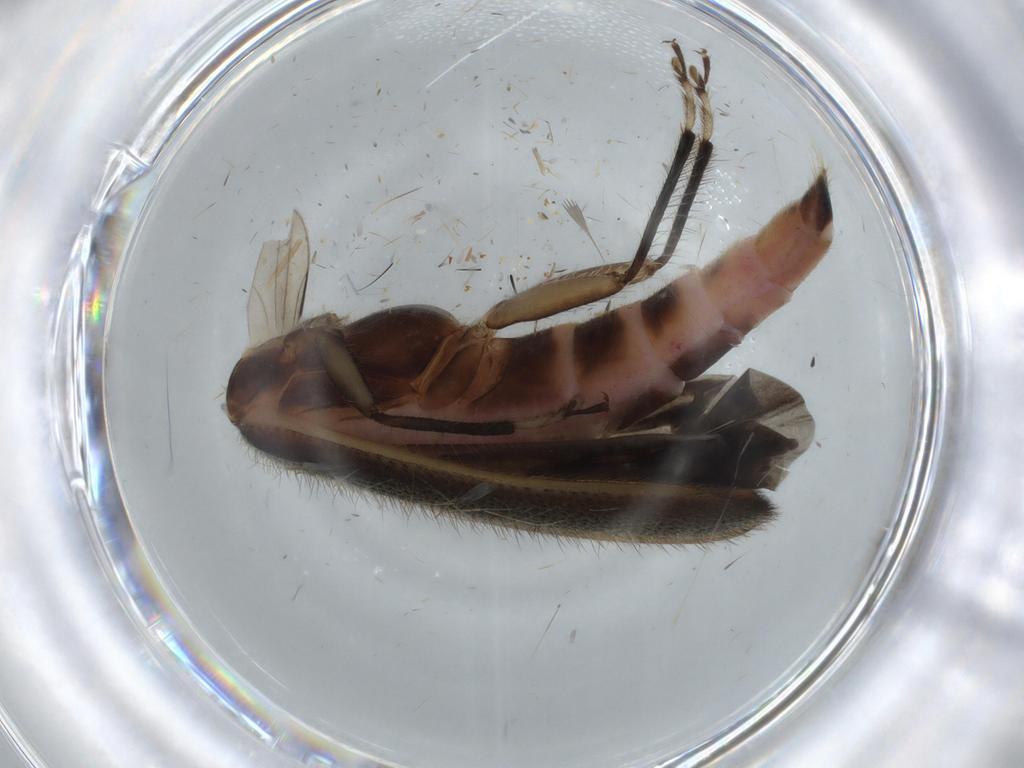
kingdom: Animalia
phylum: Arthropoda
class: Insecta
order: Coleoptera
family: Cleridae
